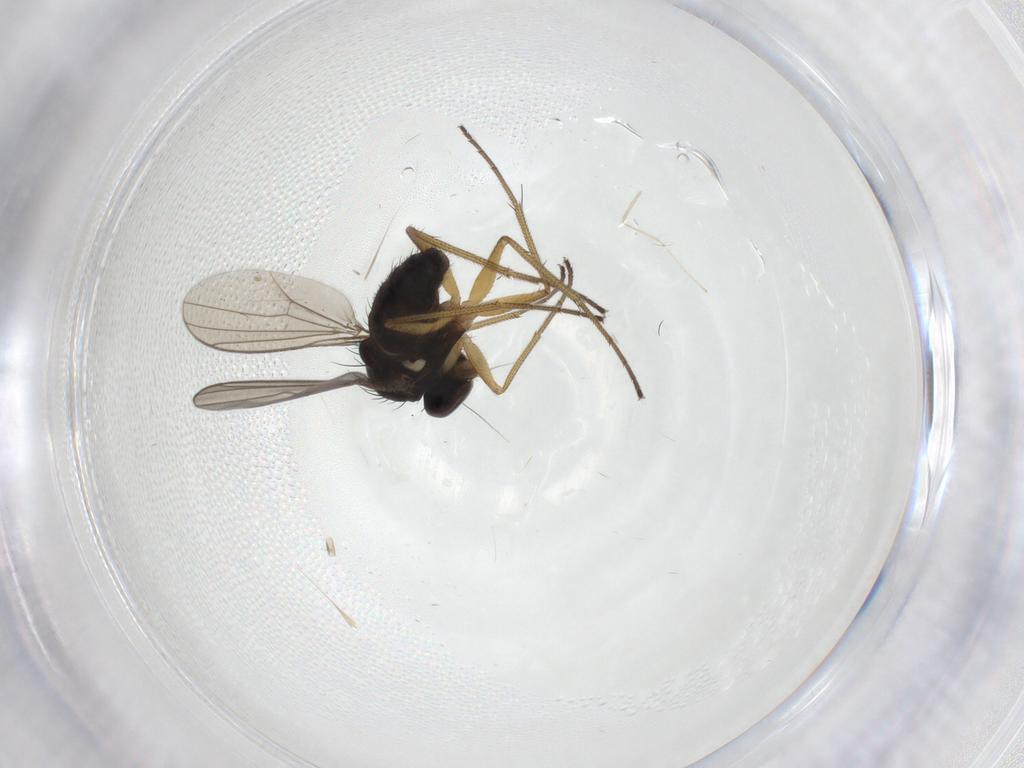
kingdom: Animalia
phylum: Arthropoda
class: Insecta
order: Diptera
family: Dolichopodidae
